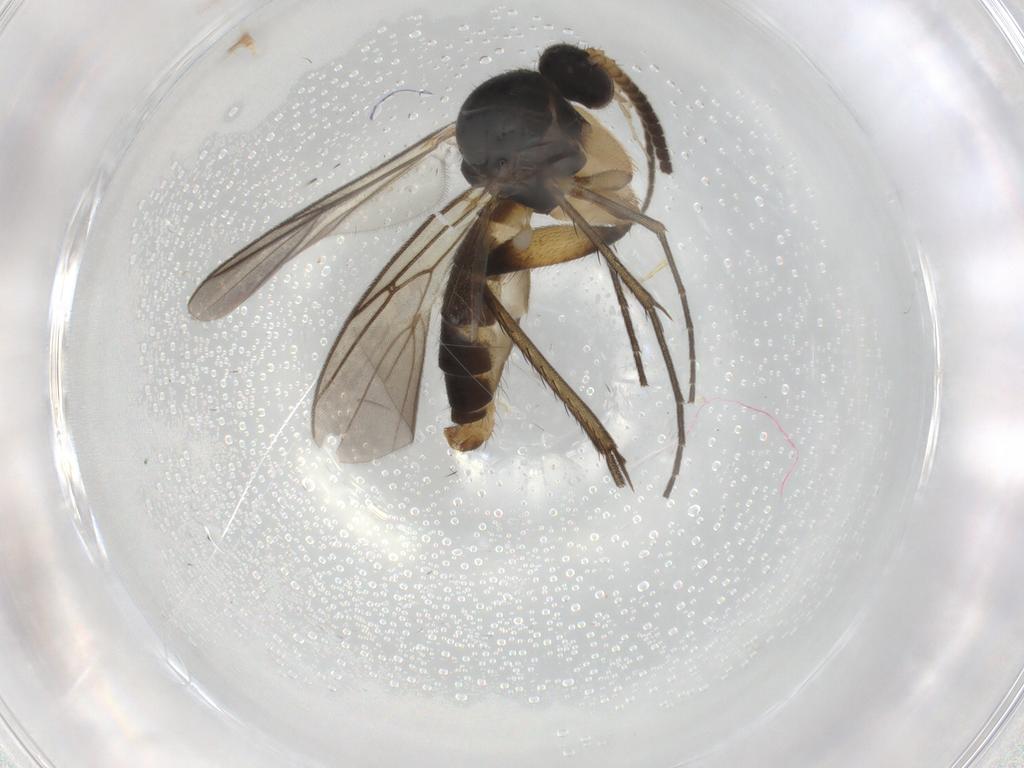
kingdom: Animalia
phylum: Arthropoda
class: Insecta
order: Diptera
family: Mycetophilidae
